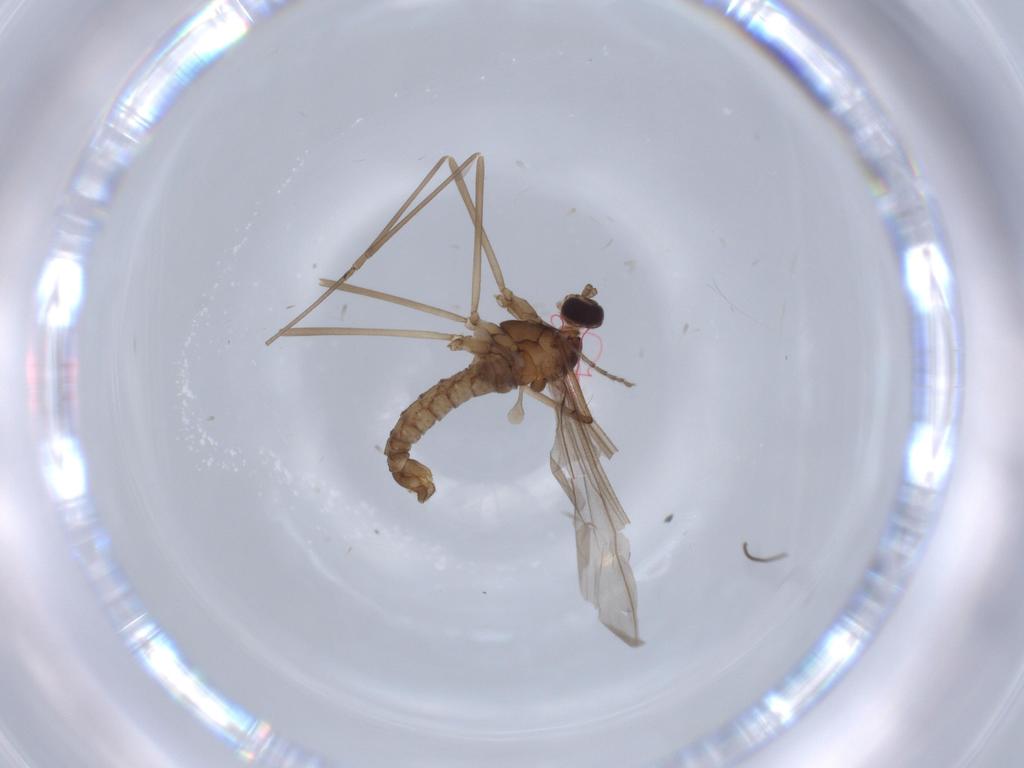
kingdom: Animalia
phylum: Arthropoda
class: Insecta
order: Diptera
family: Cecidomyiidae
